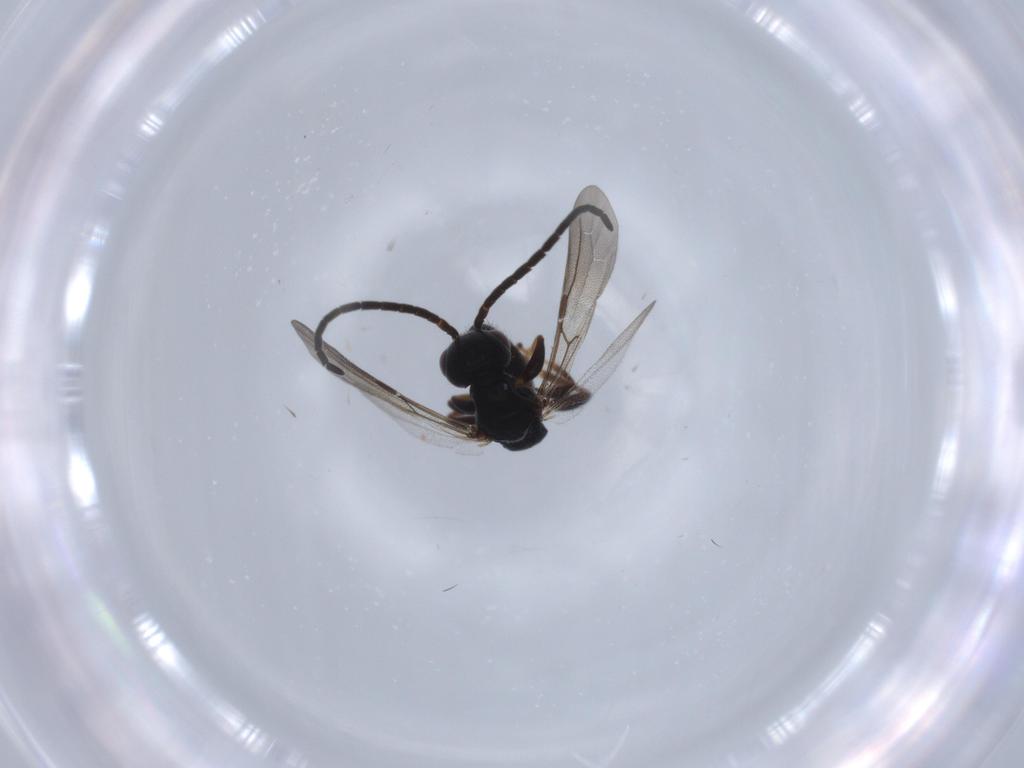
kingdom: Animalia
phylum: Arthropoda
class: Insecta
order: Hymenoptera
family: Bethylidae
